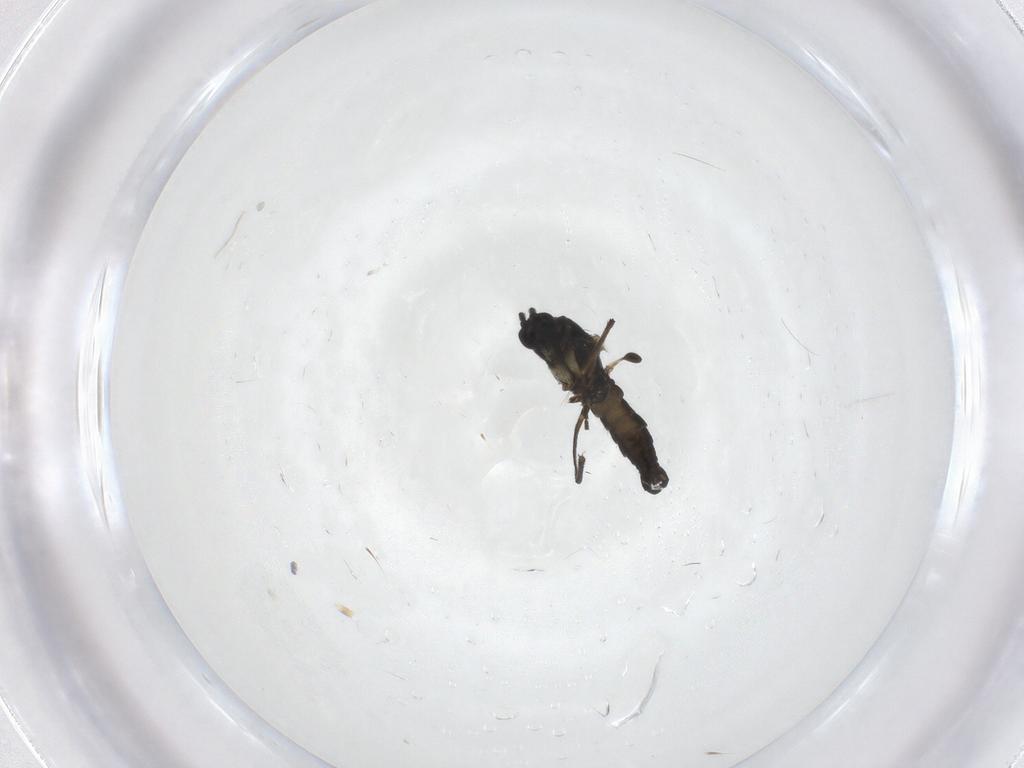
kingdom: Animalia
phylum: Arthropoda
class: Insecta
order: Diptera
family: Sciaridae
